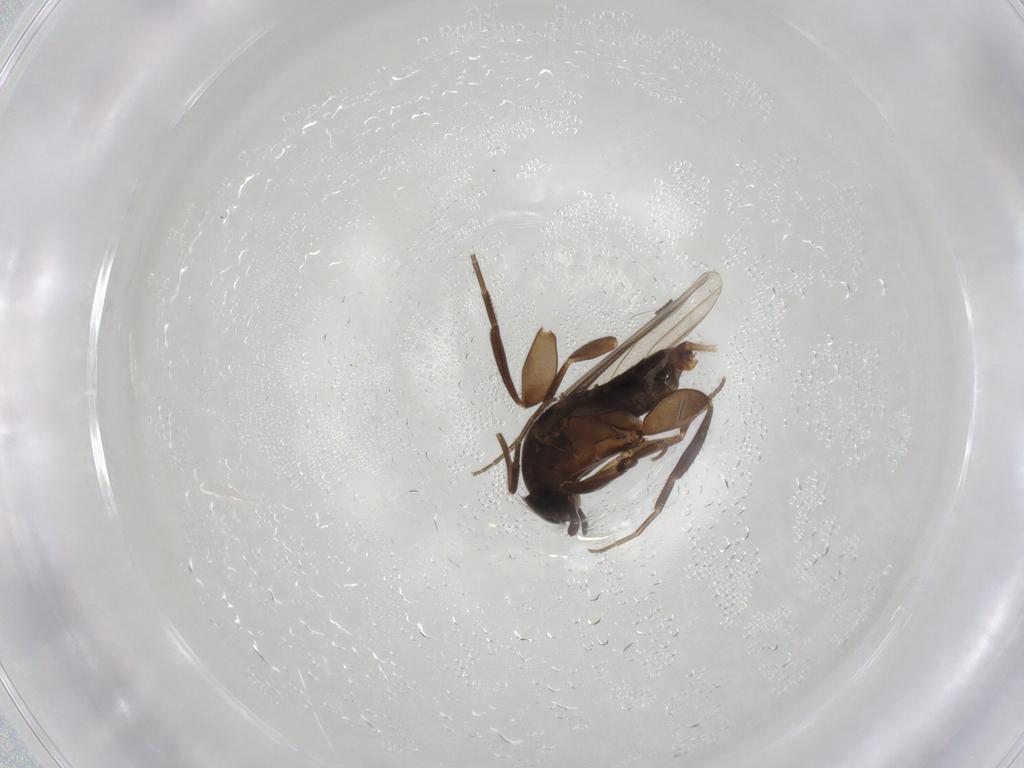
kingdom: Animalia
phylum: Arthropoda
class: Insecta
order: Diptera
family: Phoridae
